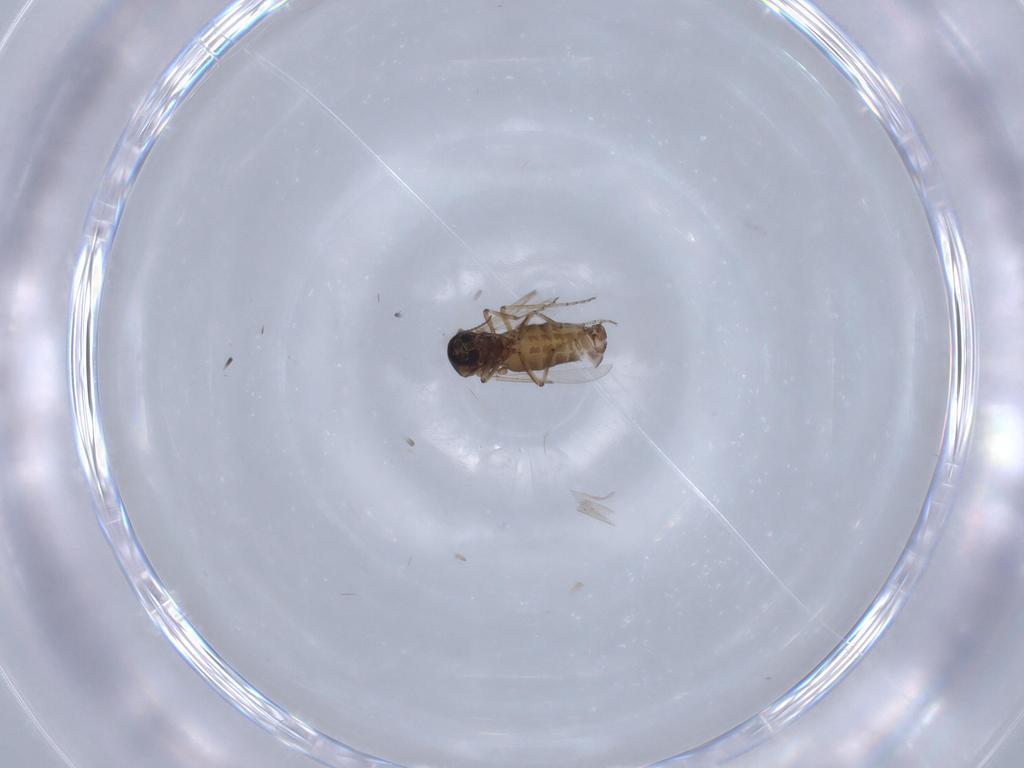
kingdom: Animalia
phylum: Arthropoda
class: Insecta
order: Diptera
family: Ceratopogonidae
